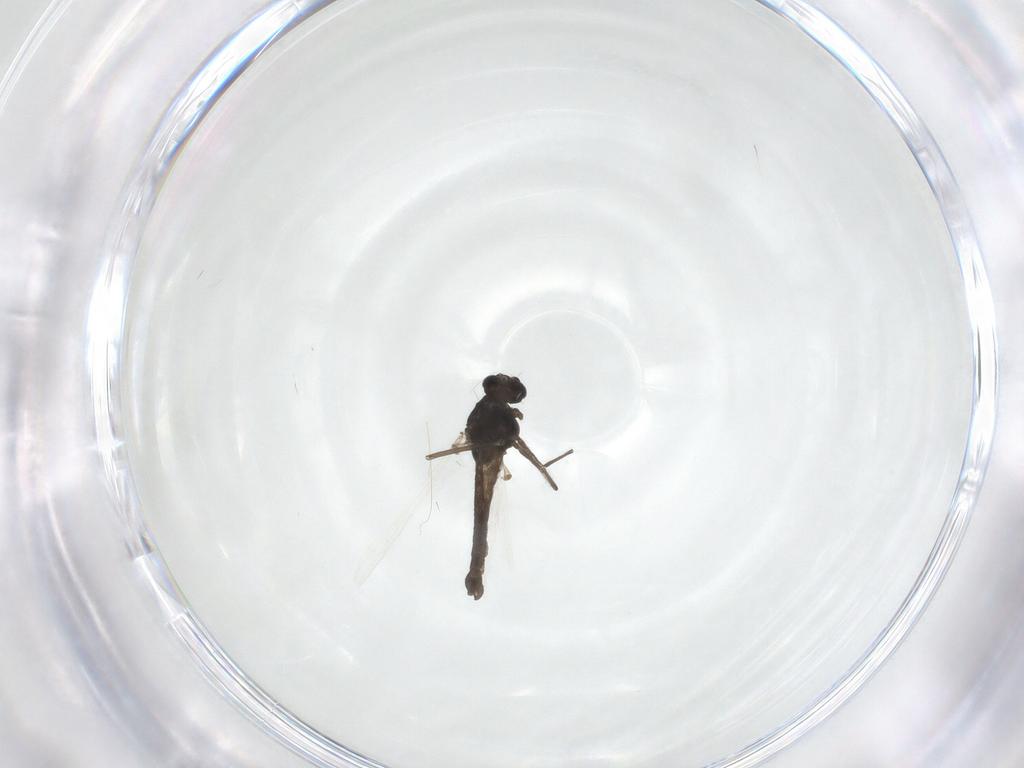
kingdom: Animalia
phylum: Arthropoda
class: Insecta
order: Diptera
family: Chironomidae
